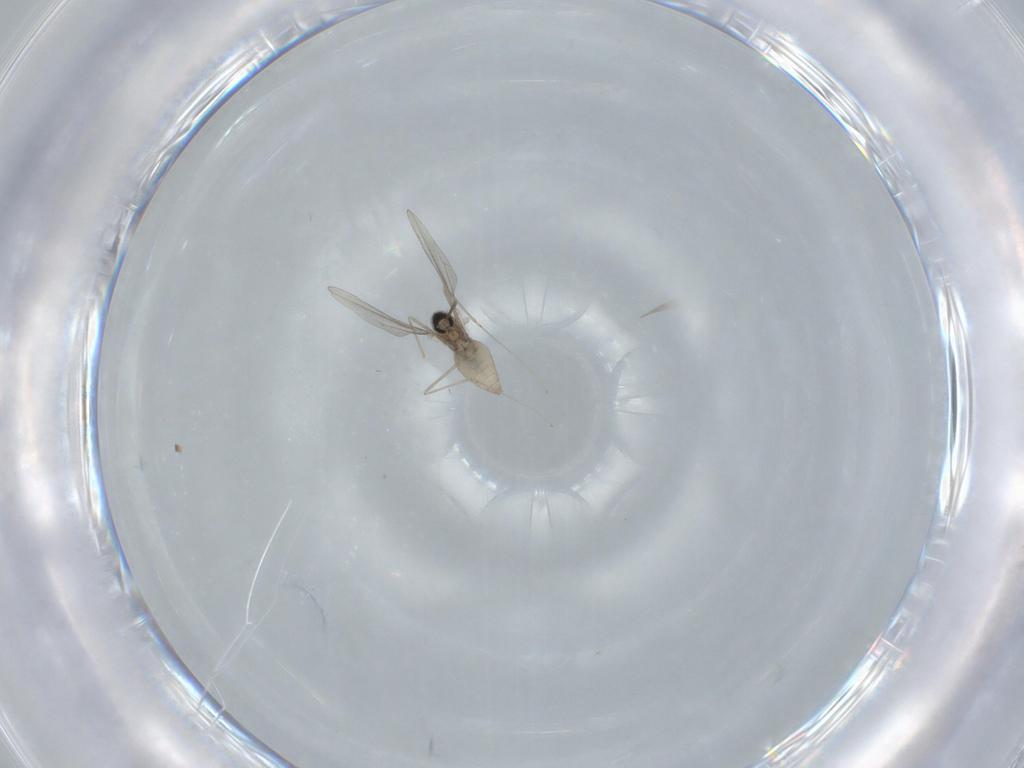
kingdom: Animalia
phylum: Arthropoda
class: Insecta
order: Diptera
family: Cecidomyiidae
